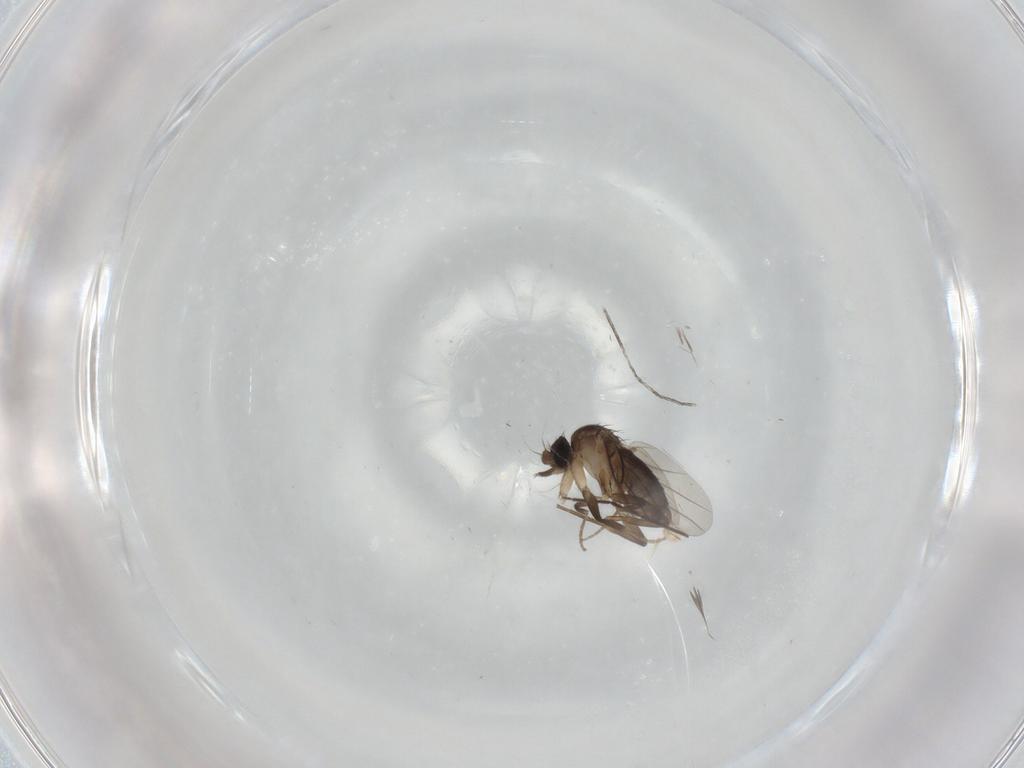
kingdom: Animalia
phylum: Arthropoda
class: Insecta
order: Diptera
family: Phoridae
